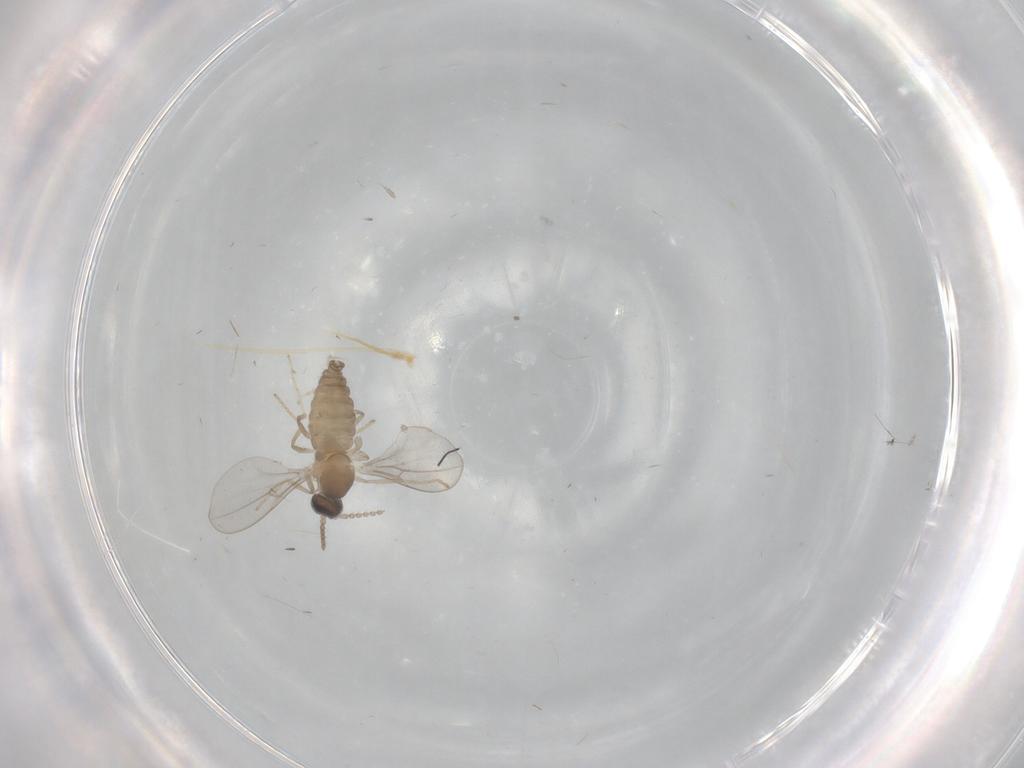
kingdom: Animalia
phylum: Arthropoda
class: Insecta
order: Diptera
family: Cecidomyiidae
